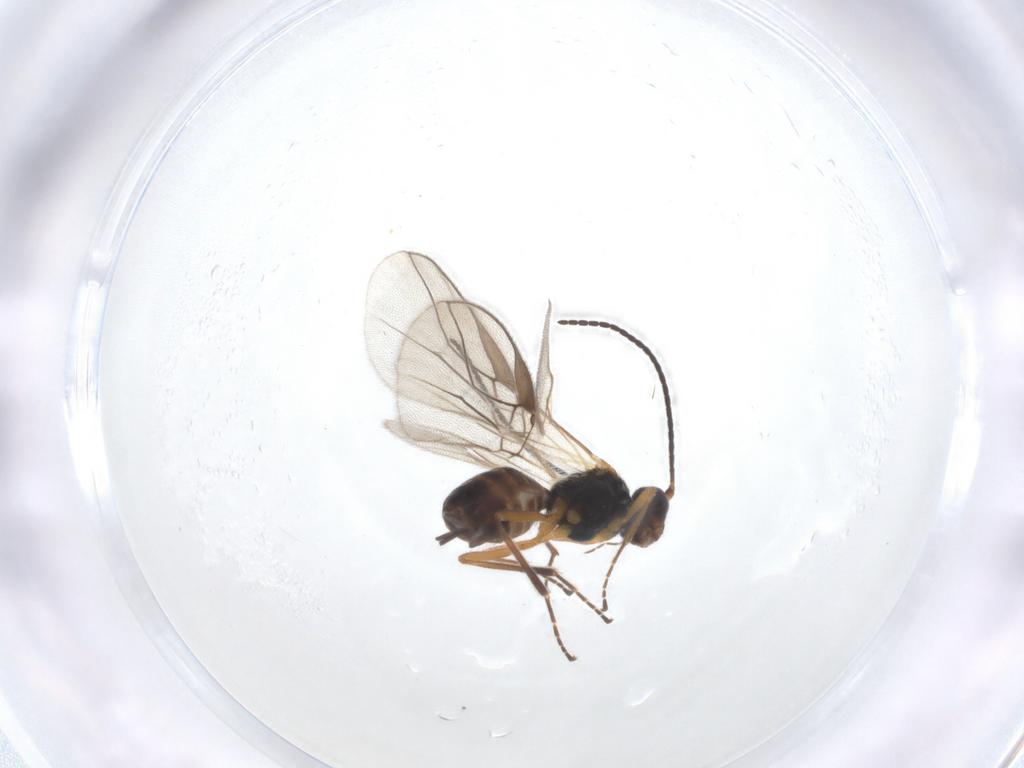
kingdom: Animalia
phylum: Arthropoda
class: Insecta
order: Hymenoptera
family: Braconidae
